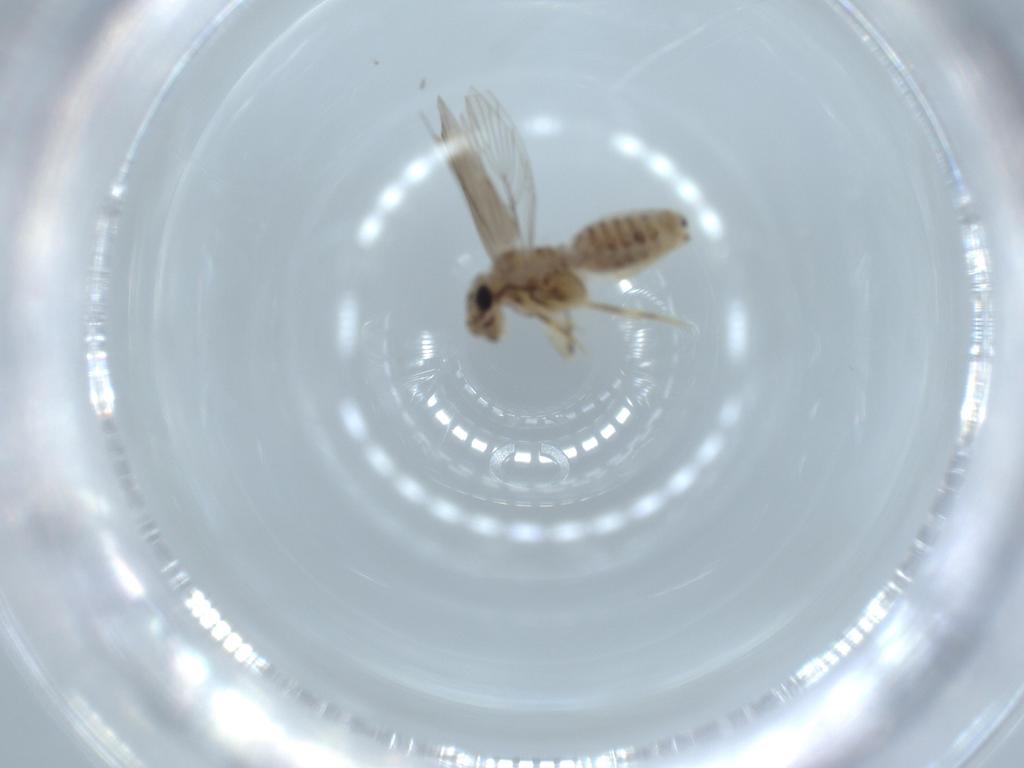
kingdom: Animalia
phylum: Arthropoda
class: Insecta
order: Psocodea
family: Lepidopsocidae
